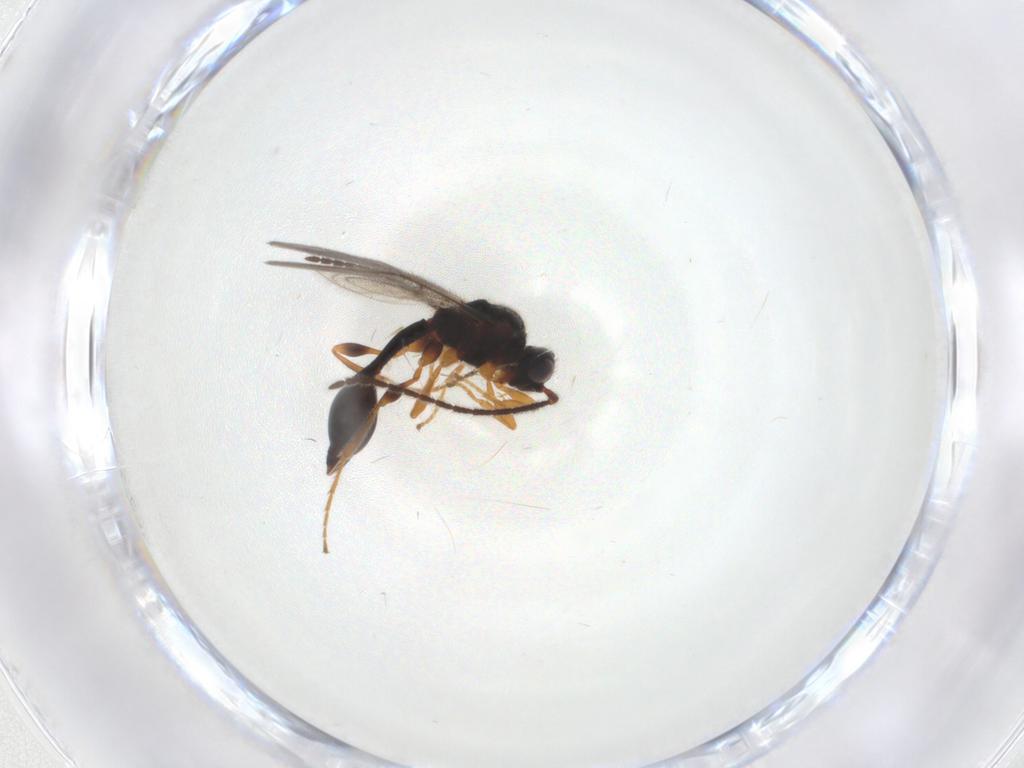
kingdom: Animalia
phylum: Arthropoda
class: Insecta
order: Hymenoptera
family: Diapriidae
